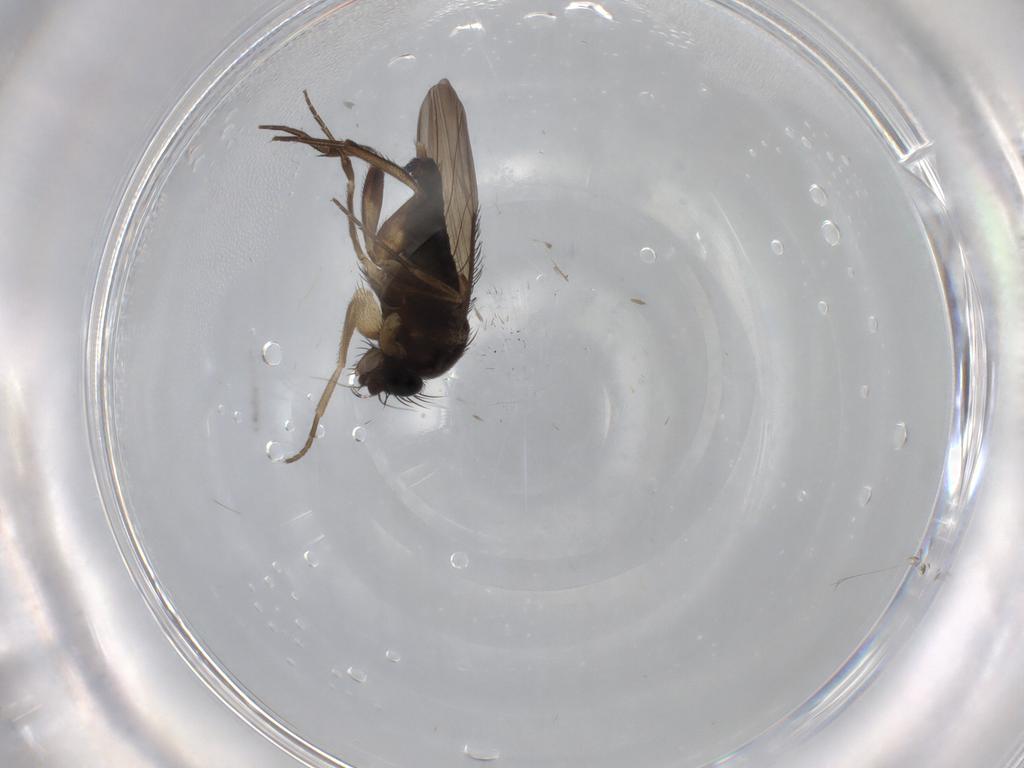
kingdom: Animalia
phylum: Arthropoda
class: Insecta
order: Diptera
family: Phoridae
